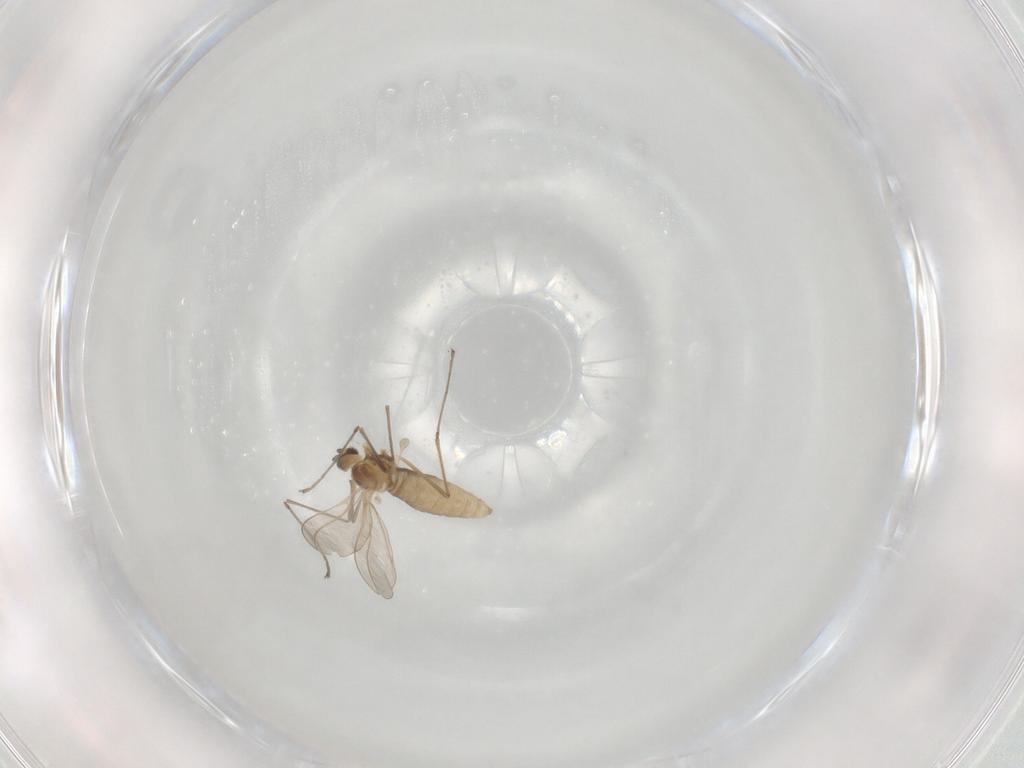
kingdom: Animalia
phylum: Arthropoda
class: Insecta
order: Diptera
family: Cecidomyiidae
